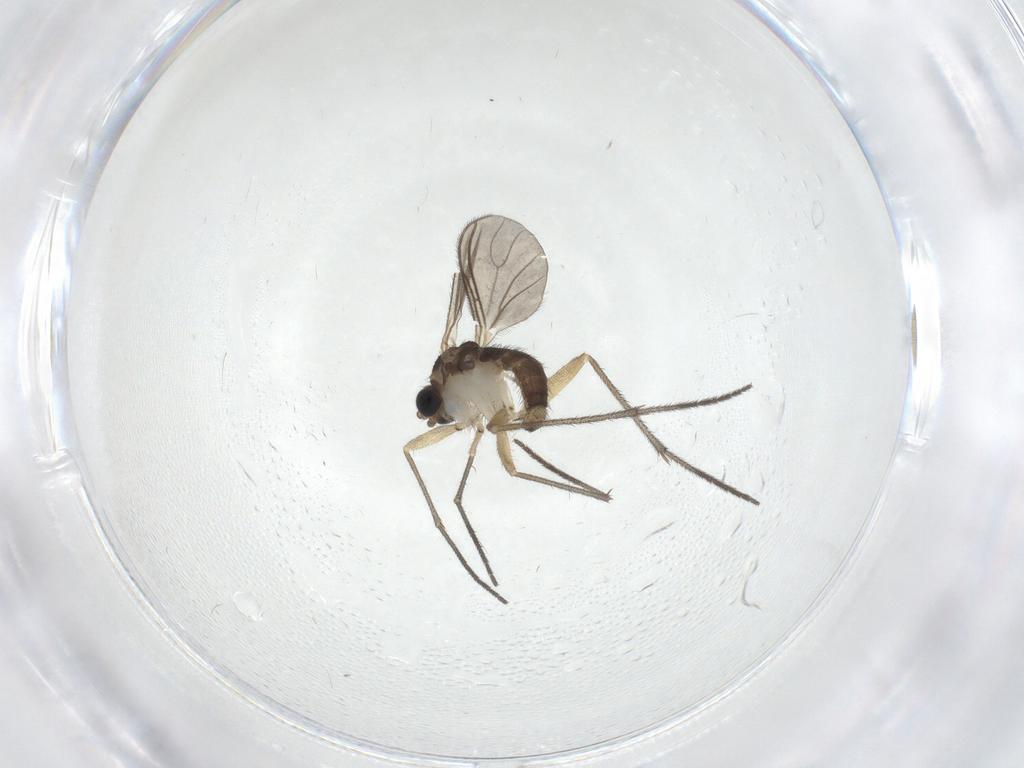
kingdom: Animalia
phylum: Arthropoda
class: Insecta
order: Diptera
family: Sciaridae
